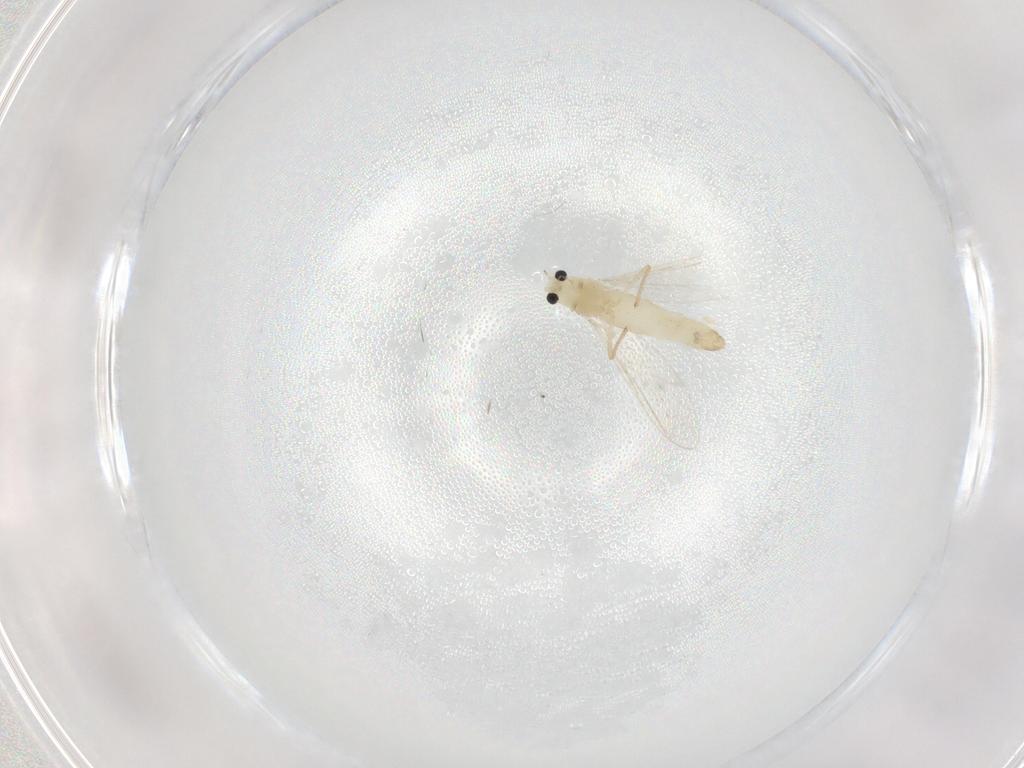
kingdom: Animalia
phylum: Arthropoda
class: Insecta
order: Diptera
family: Chironomidae
